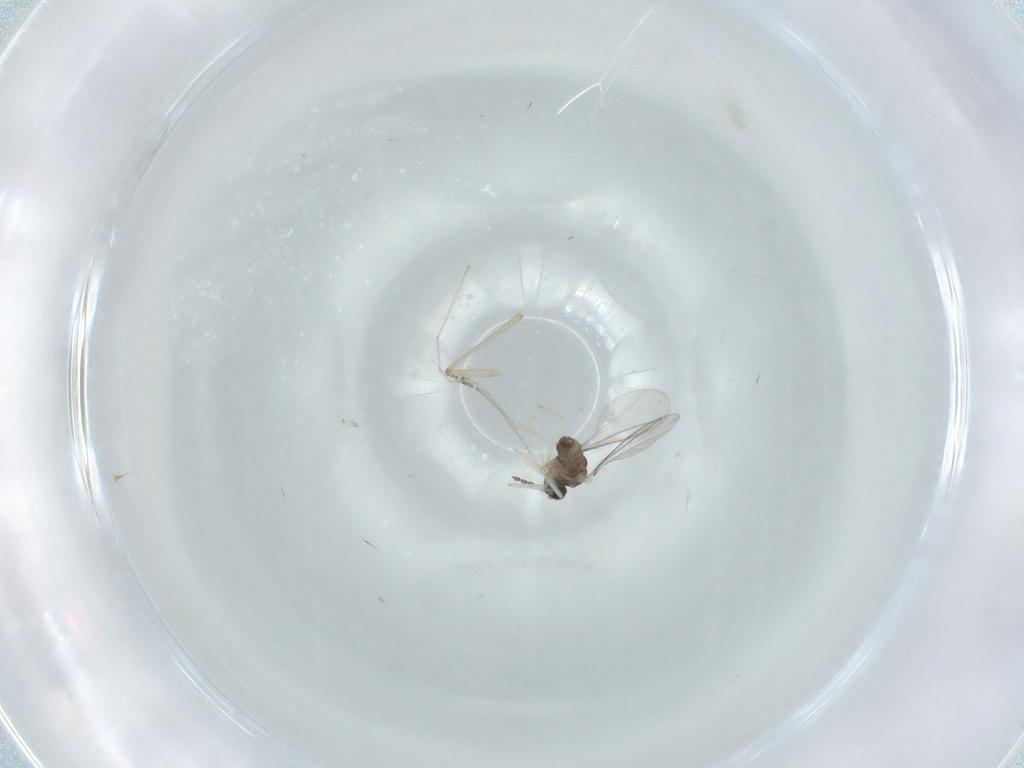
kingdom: Animalia
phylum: Arthropoda
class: Insecta
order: Diptera
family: Cecidomyiidae
